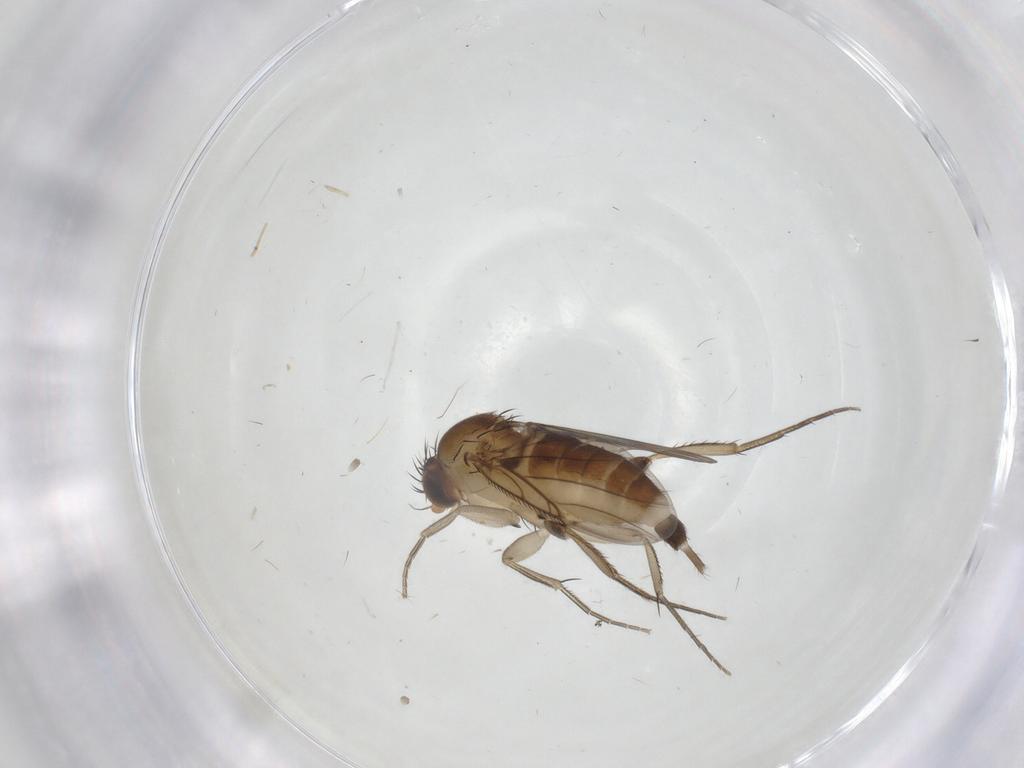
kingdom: Animalia
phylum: Arthropoda
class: Insecta
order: Diptera
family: Phoridae
